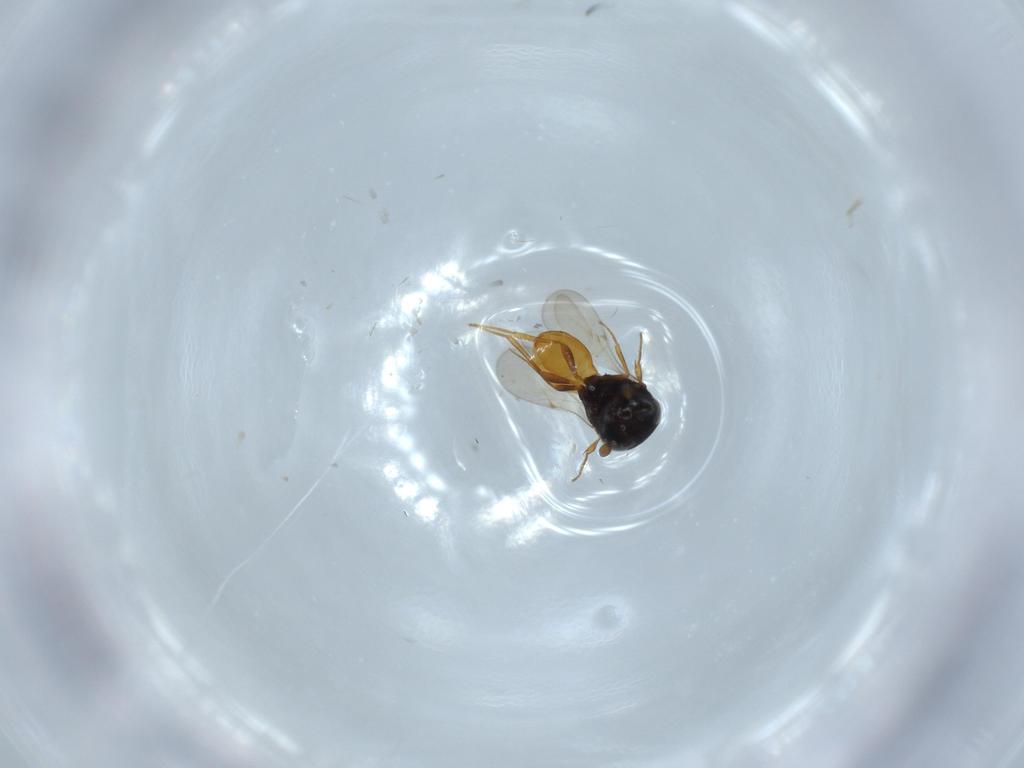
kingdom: Animalia
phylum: Arthropoda
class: Insecta
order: Hymenoptera
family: Scelionidae
